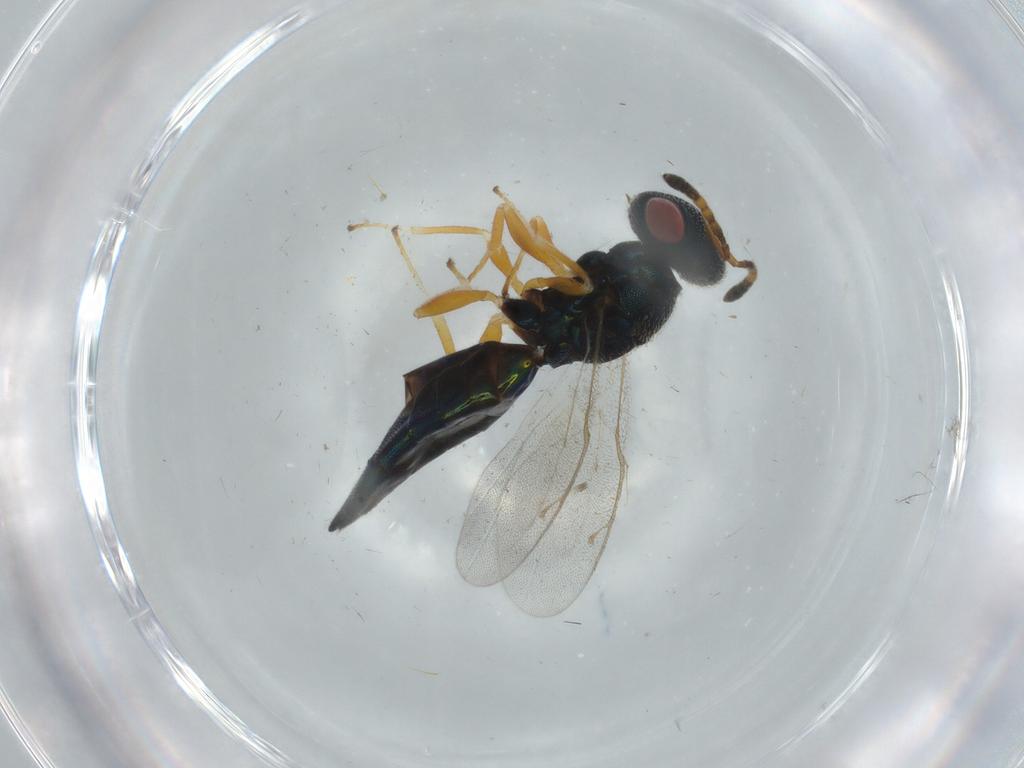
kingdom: Animalia
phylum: Arthropoda
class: Insecta
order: Hymenoptera
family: Pteromalidae
